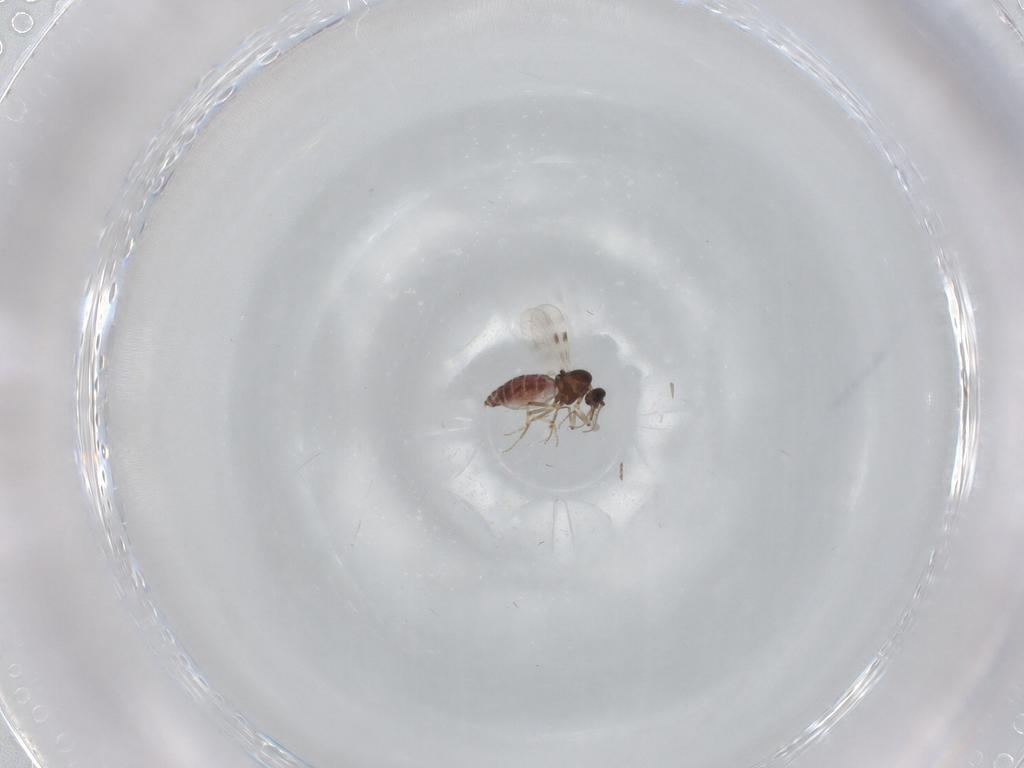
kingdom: Animalia
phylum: Arthropoda
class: Insecta
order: Diptera
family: Ceratopogonidae
